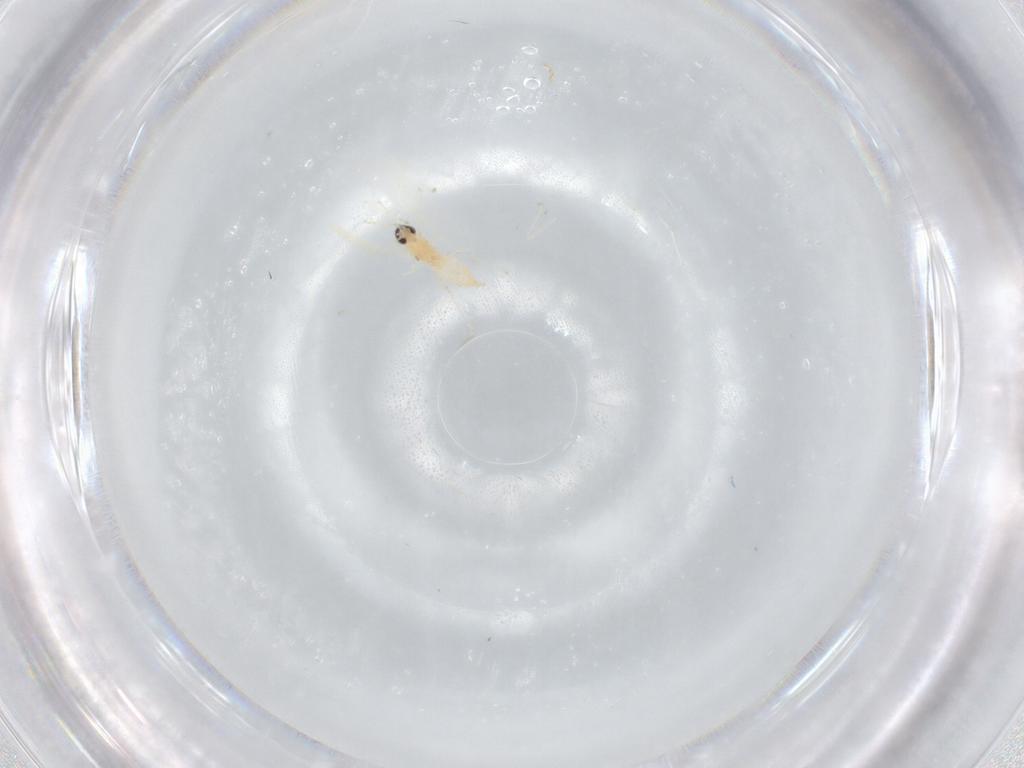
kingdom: Animalia
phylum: Arthropoda
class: Insecta
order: Diptera
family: Cecidomyiidae
